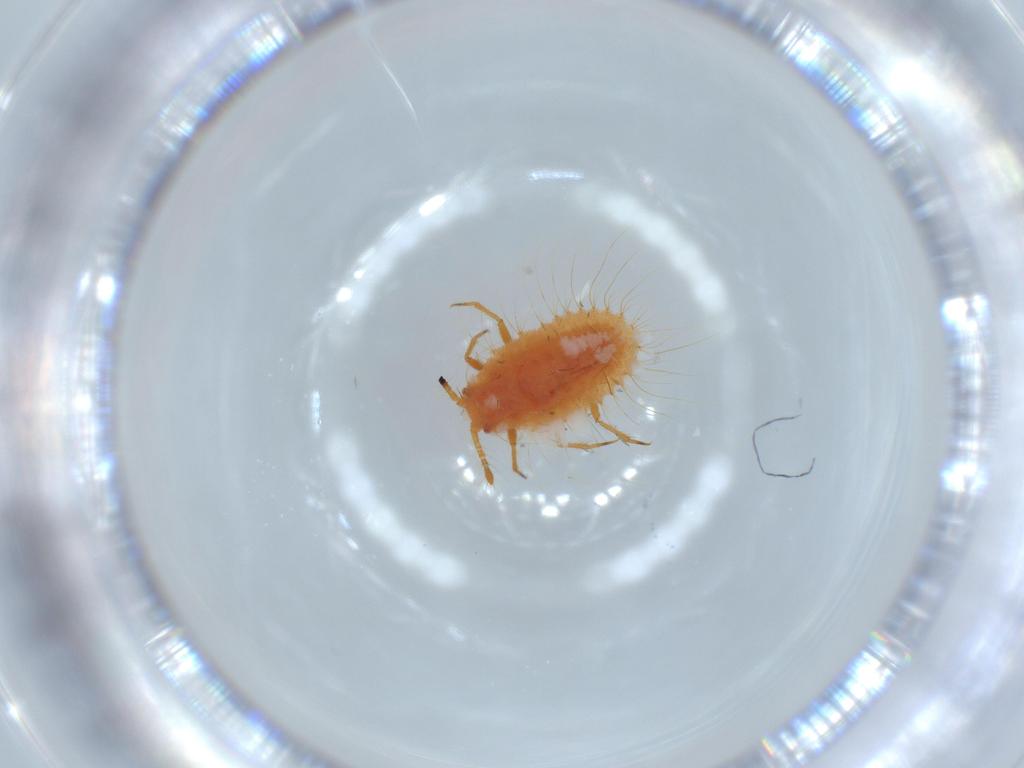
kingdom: Animalia
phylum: Arthropoda
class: Insecta
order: Hemiptera
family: Coccoidea_incertae_sedis
